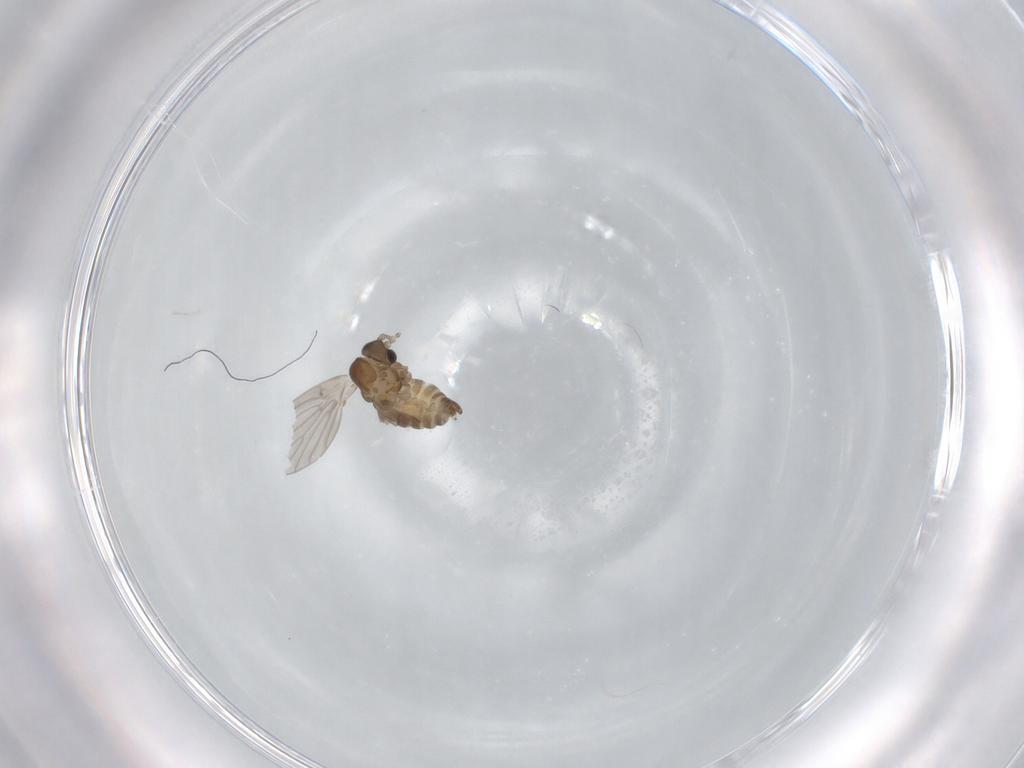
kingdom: Animalia
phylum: Arthropoda
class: Insecta
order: Diptera
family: Psychodidae
